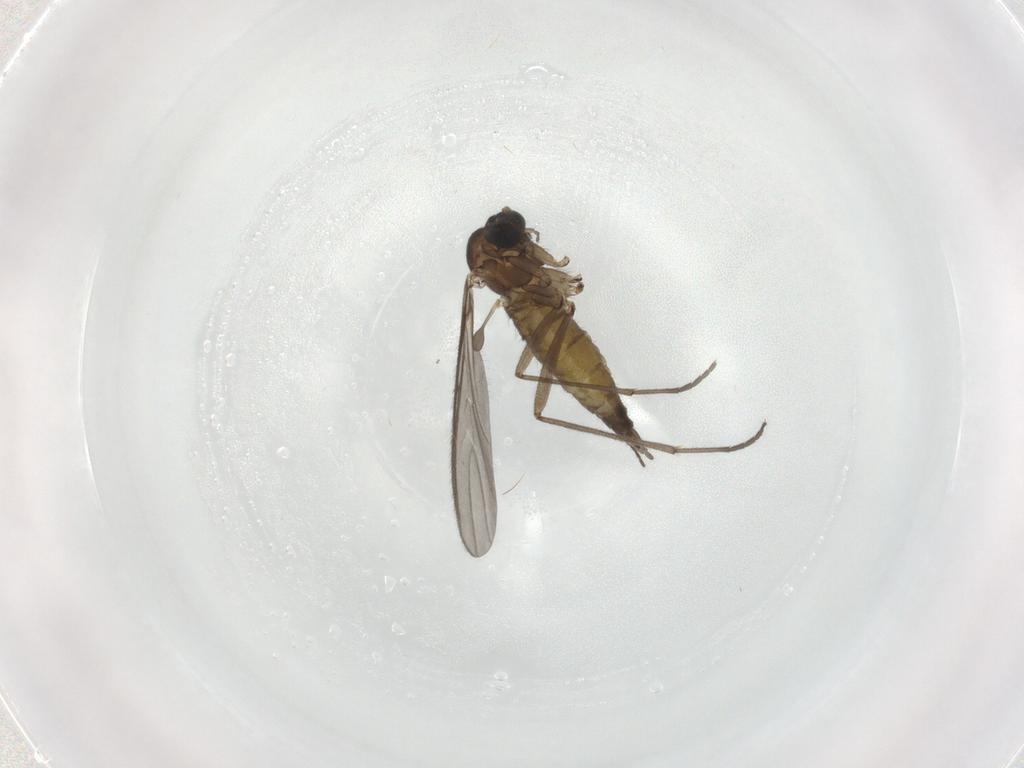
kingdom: Animalia
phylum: Arthropoda
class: Insecta
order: Diptera
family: Sciaridae
